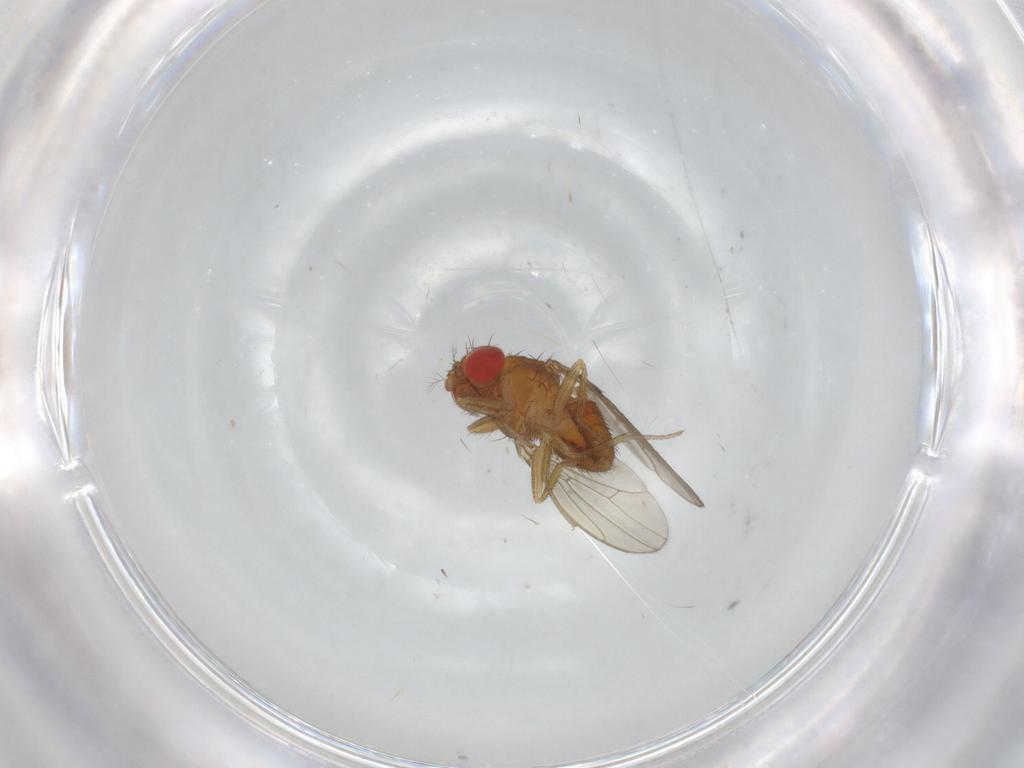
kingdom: Animalia
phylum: Arthropoda
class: Insecta
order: Diptera
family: Drosophilidae
